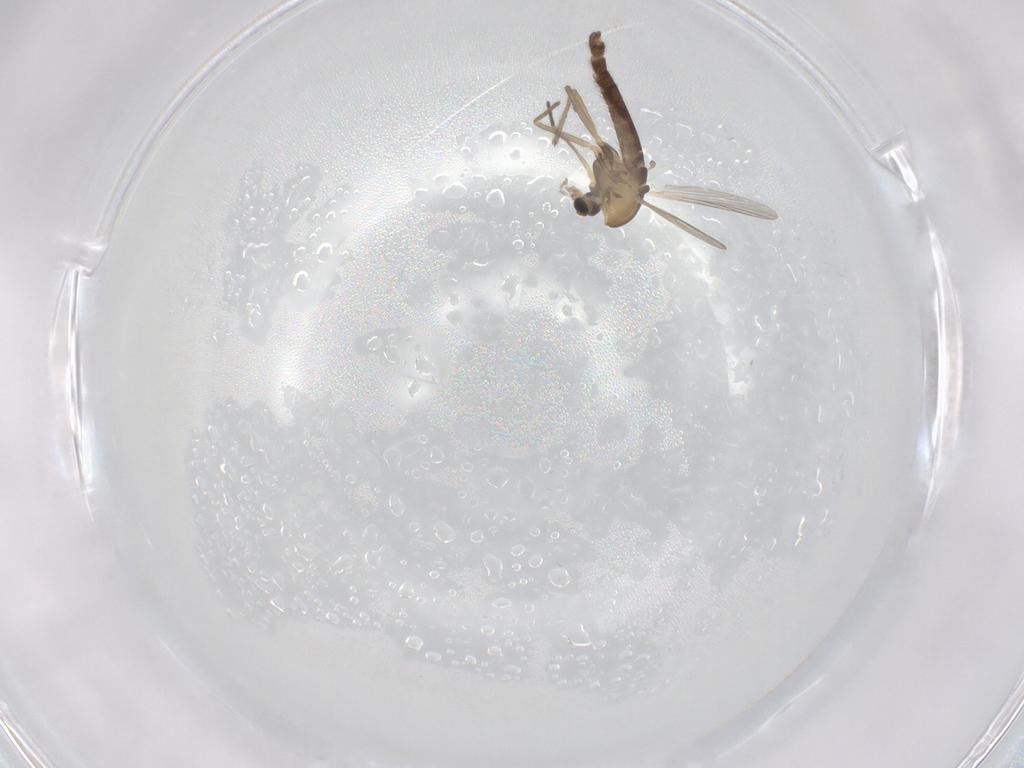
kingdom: Animalia
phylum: Arthropoda
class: Insecta
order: Diptera
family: Chironomidae
